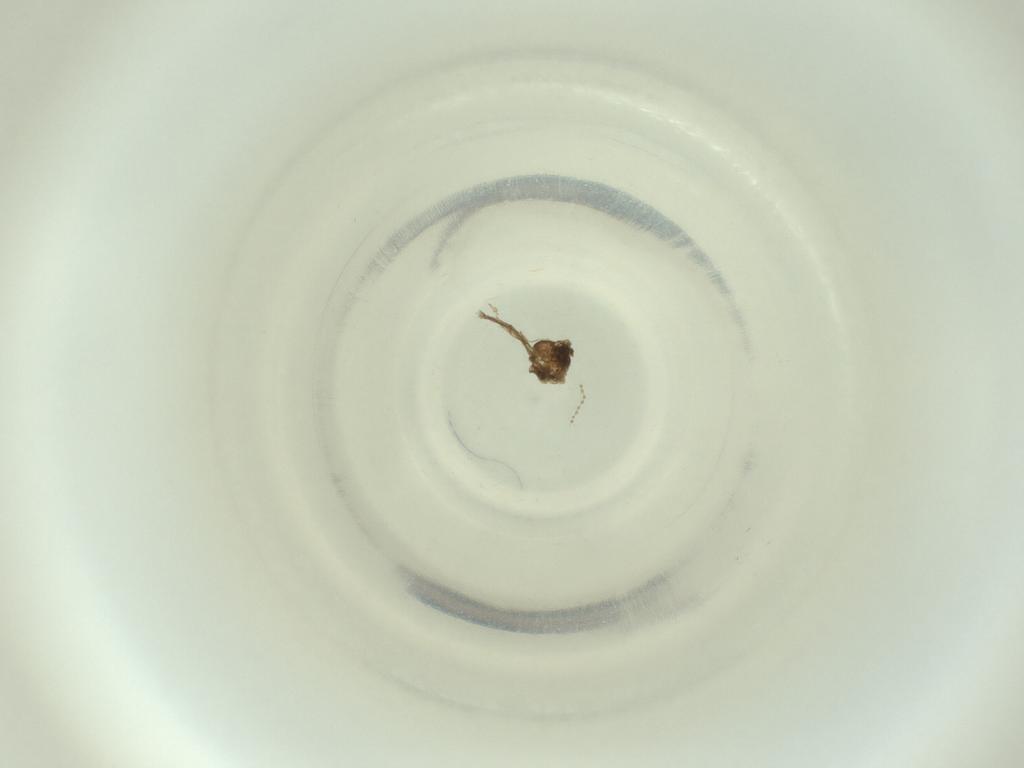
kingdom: Animalia
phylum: Arthropoda
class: Insecta
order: Diptera
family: Cecidomyiidae
